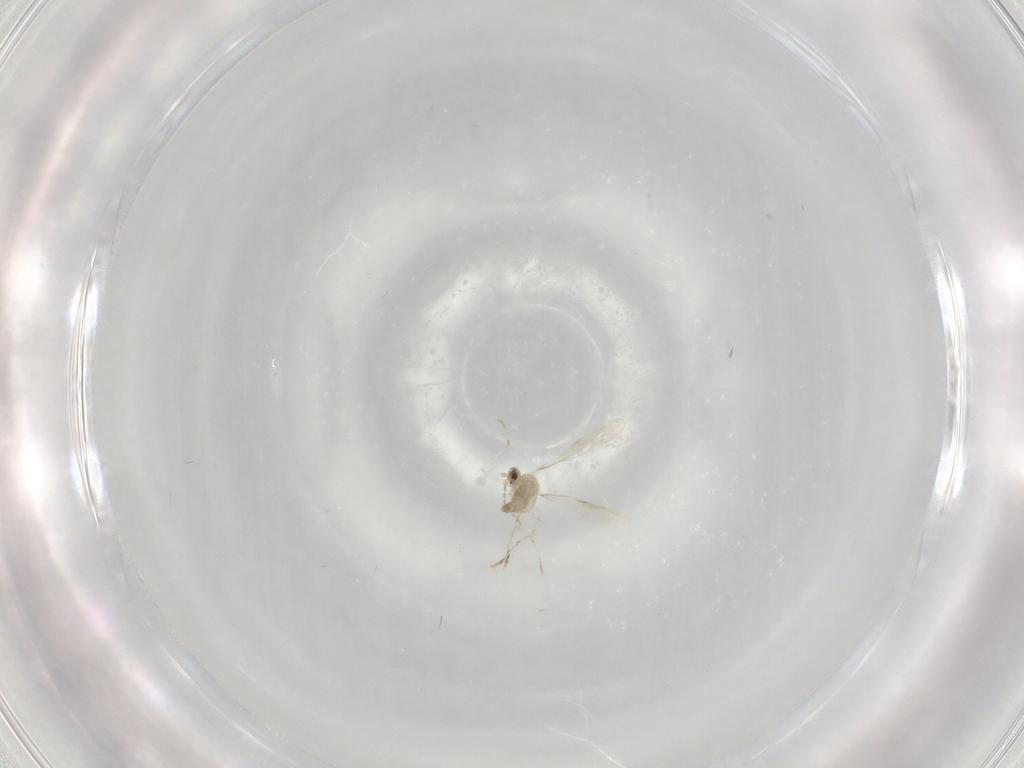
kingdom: Animalia
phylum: Arthropoda
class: Insecta
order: Diptera
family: Cecidomyiidae
